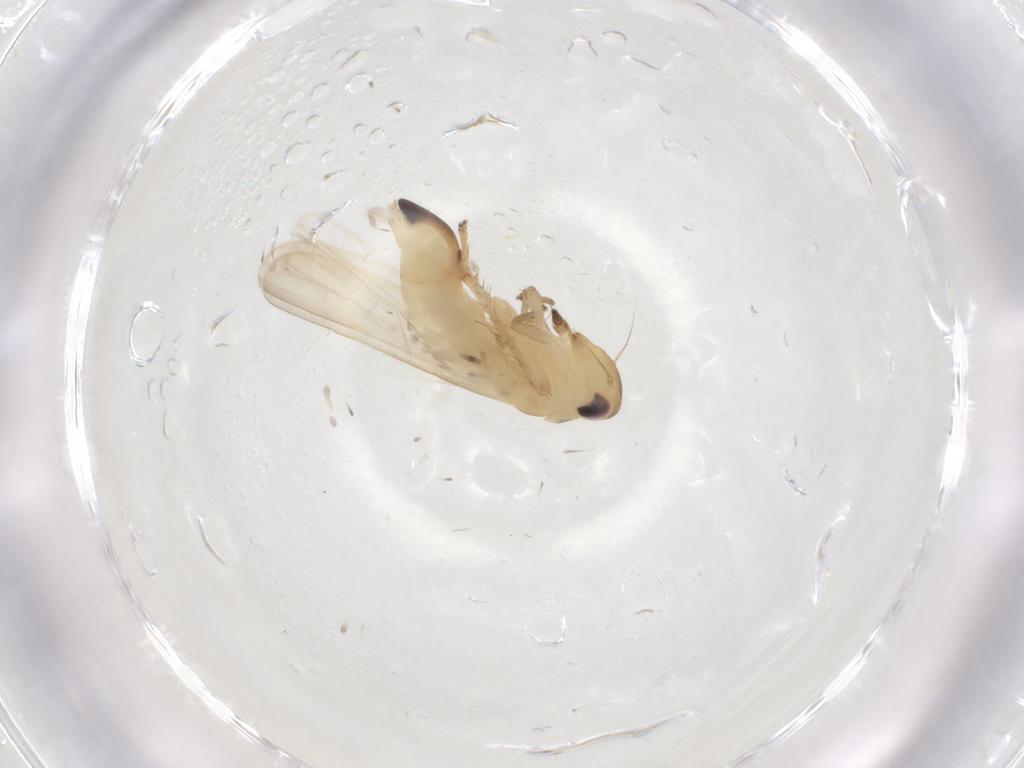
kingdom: Animalia
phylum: Arthropoda
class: Insecta
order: Hemiptera
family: Cicadellidae
